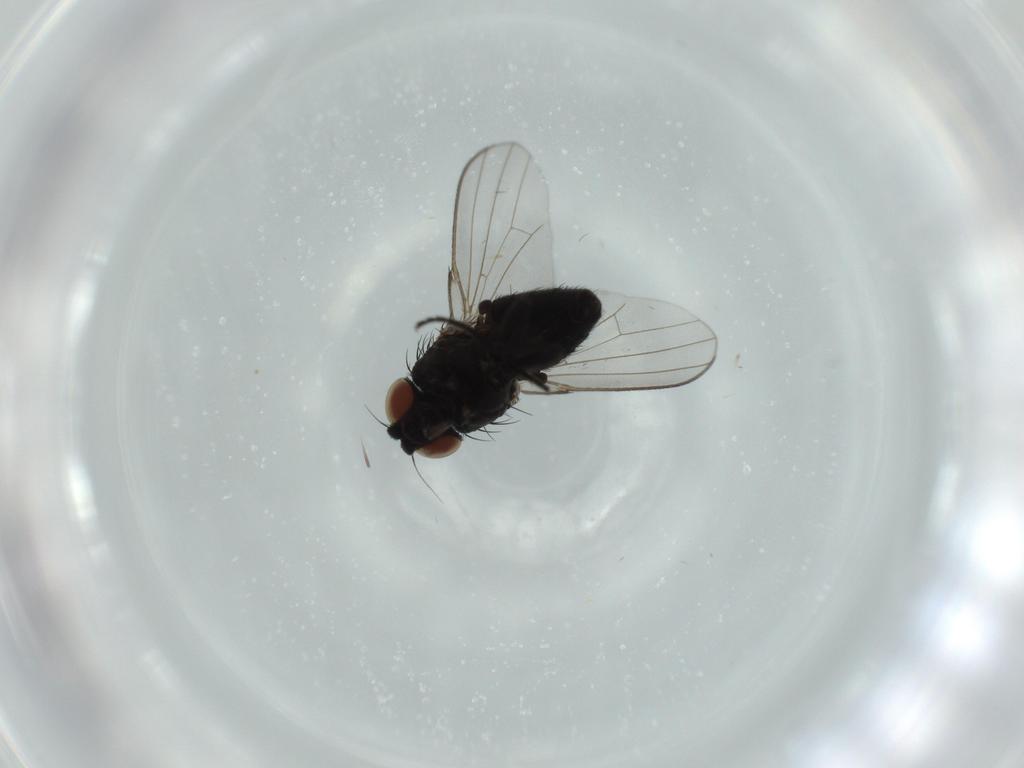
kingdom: Animalia
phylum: Arthropoda
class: Insecta
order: Diptera
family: Milichiidae
